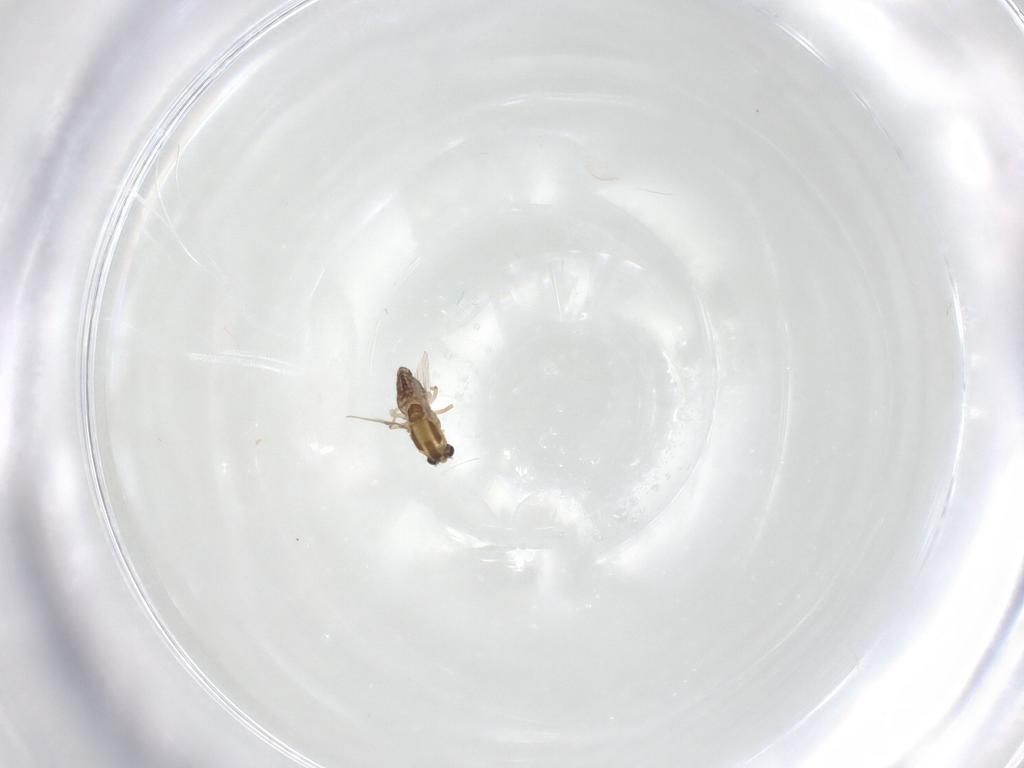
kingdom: Animalia
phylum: Arthropoda
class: Insecta
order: Diptera
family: Chironomidae
